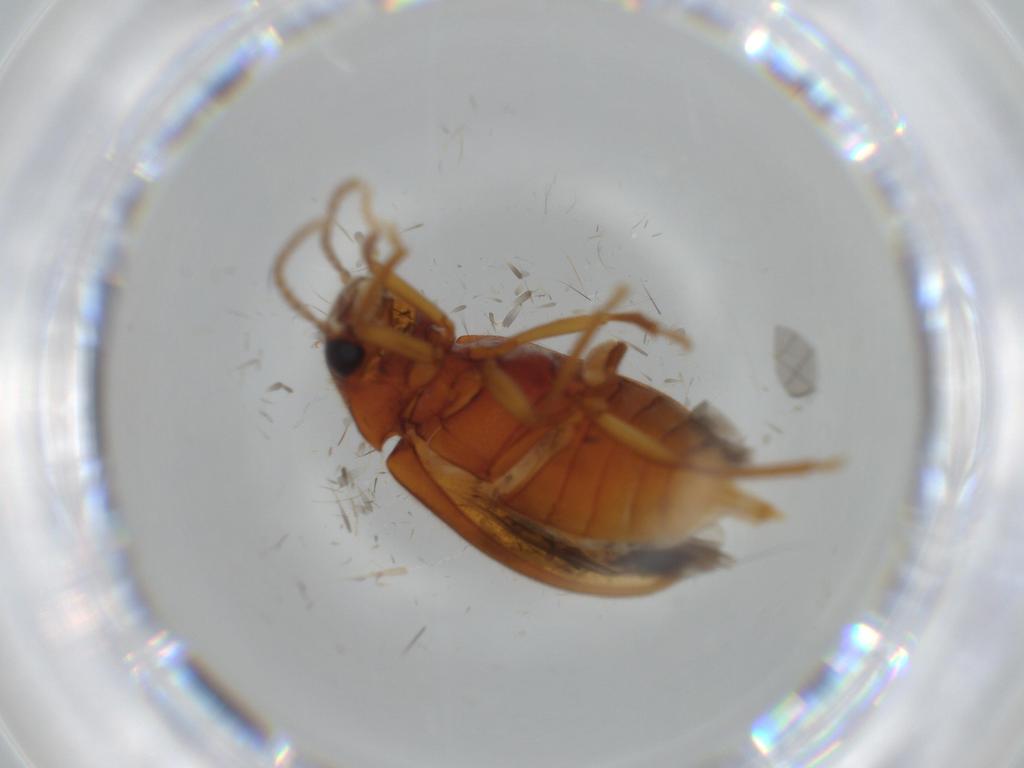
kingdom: Animalia
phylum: Arthropoda
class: Insecta
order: Coleoptera
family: Ptilodactylidae
